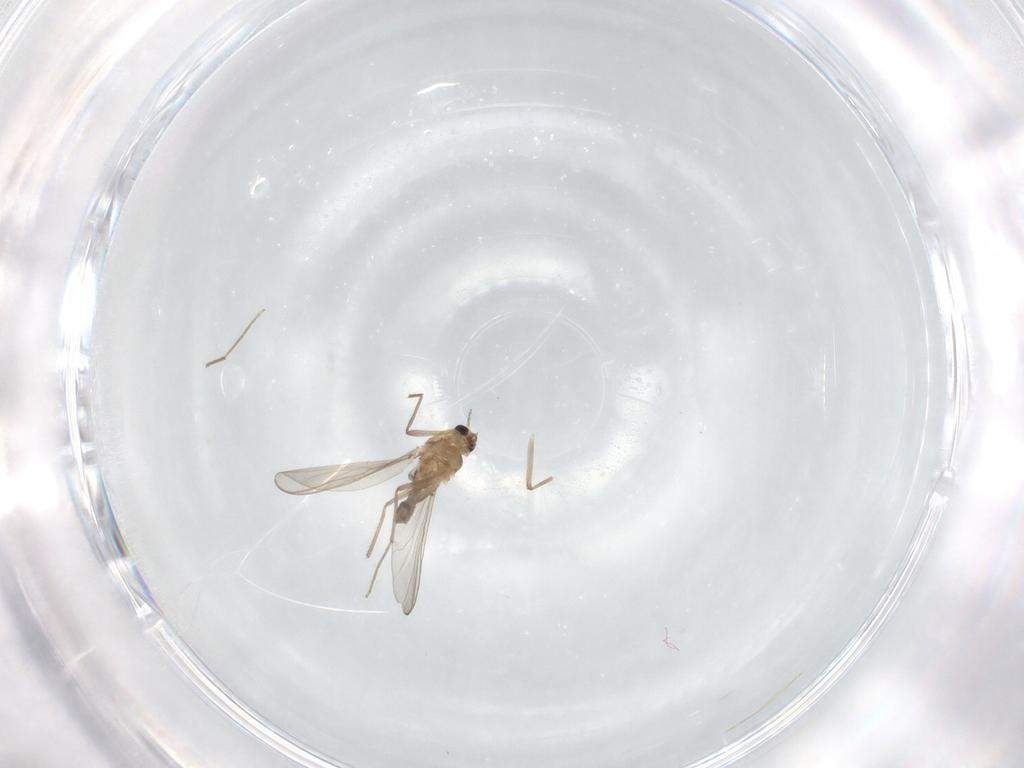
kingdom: Animalia
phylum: Arthropoda
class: Insecta
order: Diptera
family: Chironomidae
